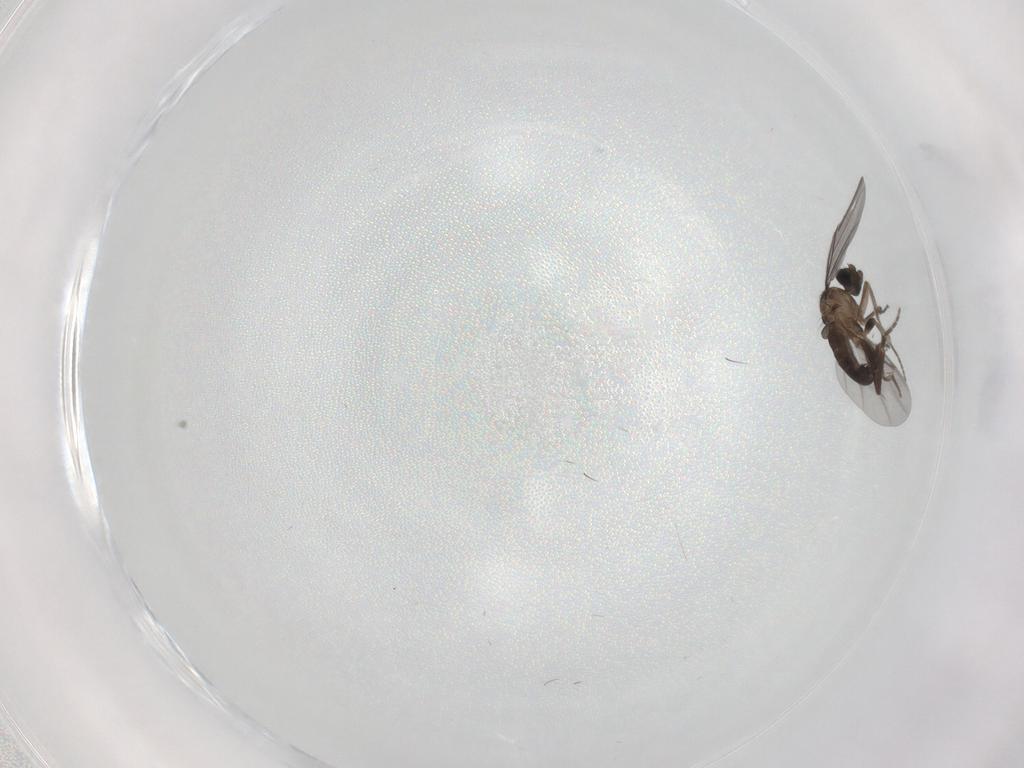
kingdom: Animalia
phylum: Arthropoda
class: Insecta
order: Diptera
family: Phoridae
